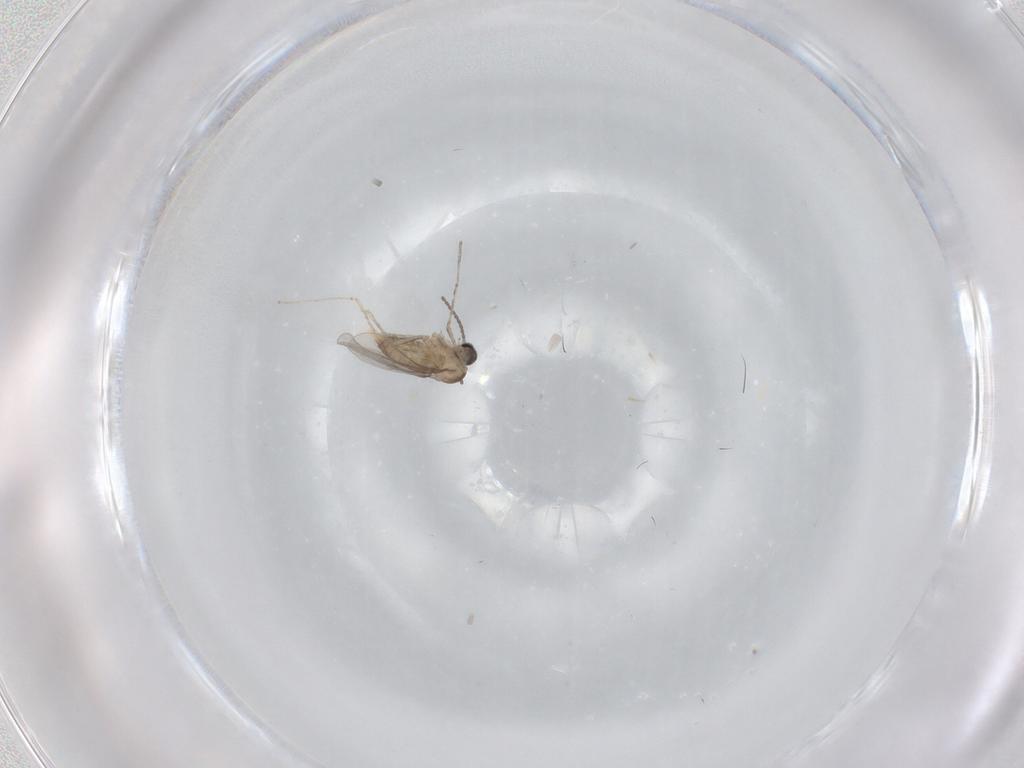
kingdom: Animalia
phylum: Arthropoda
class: Insecta
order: Diptera
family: Cecidomyiidae
